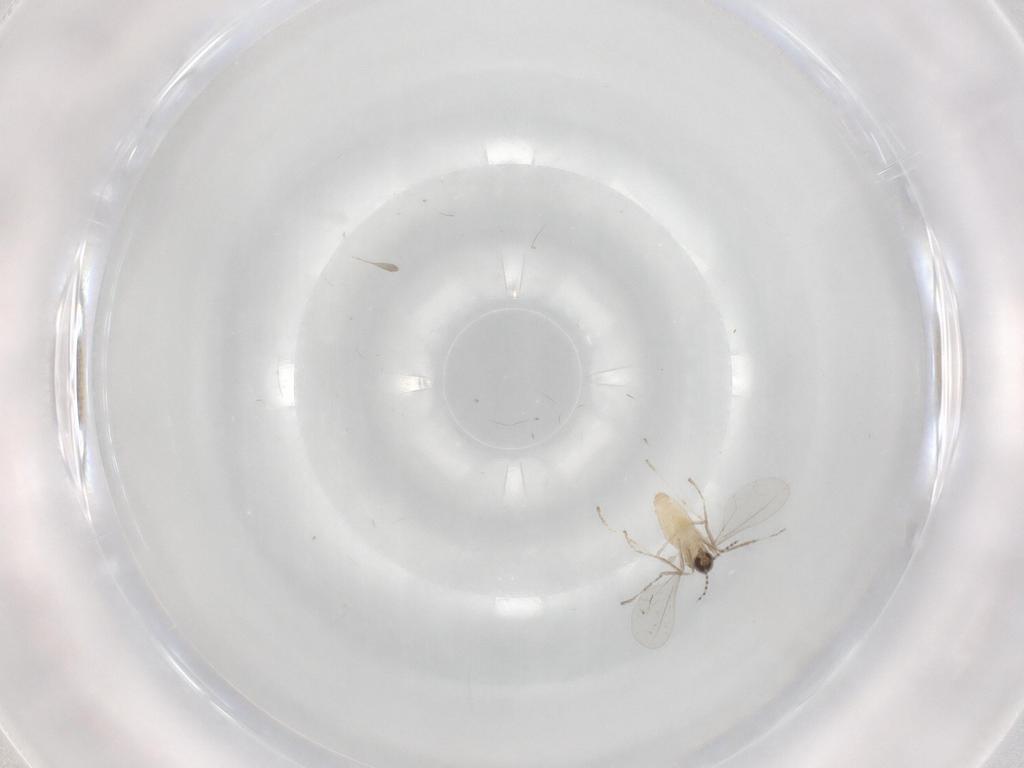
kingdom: Animalia
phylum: Arthropoda
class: Insecta
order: Diptera
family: Cecidomyiidae
